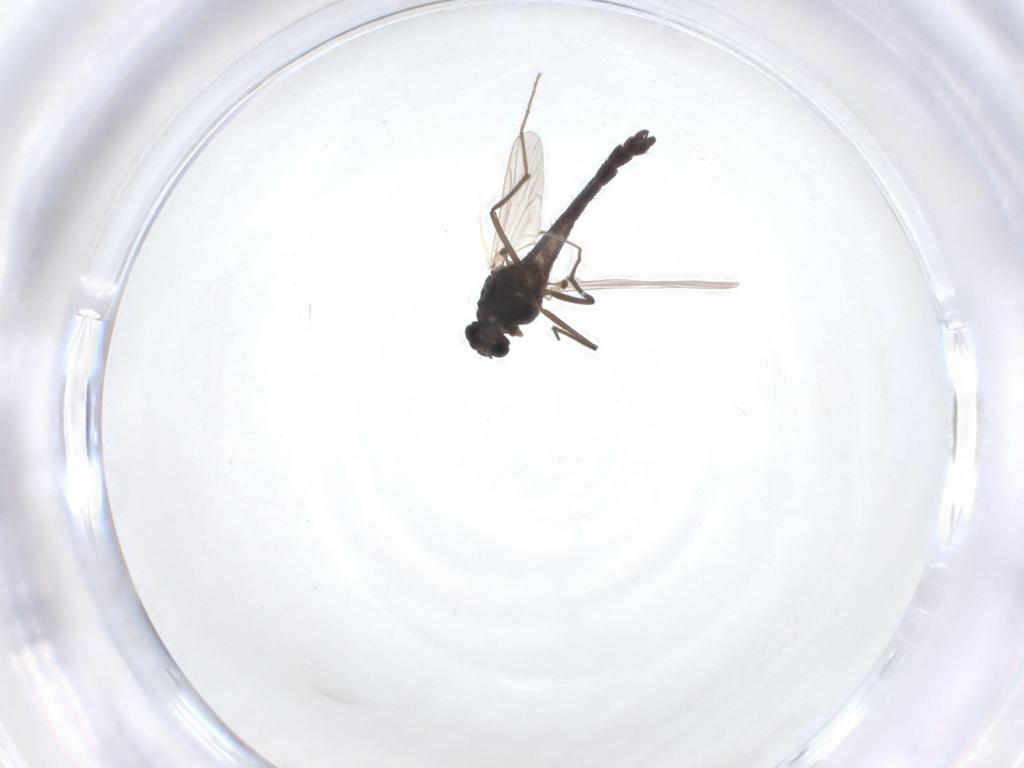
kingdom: Animalia
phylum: Arthropoda
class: Insecta
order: Diptera
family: Chironomidae
